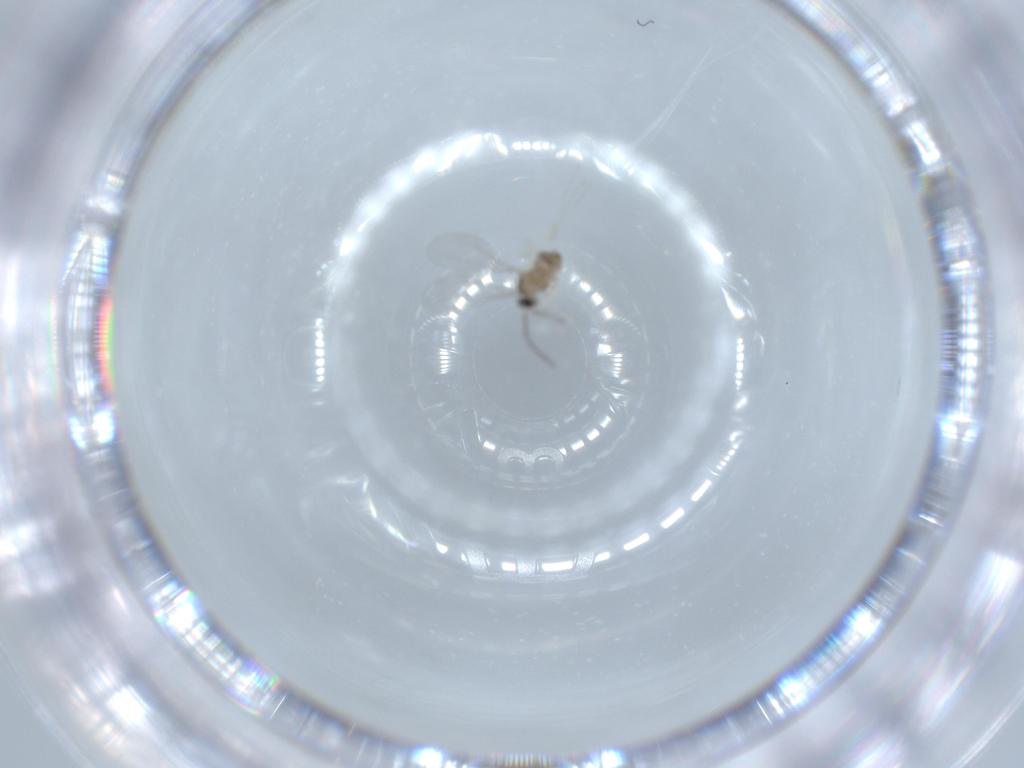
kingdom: Animalia
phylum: Arthropoda
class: Insecta
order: Diptera
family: Cecidomyiidae
